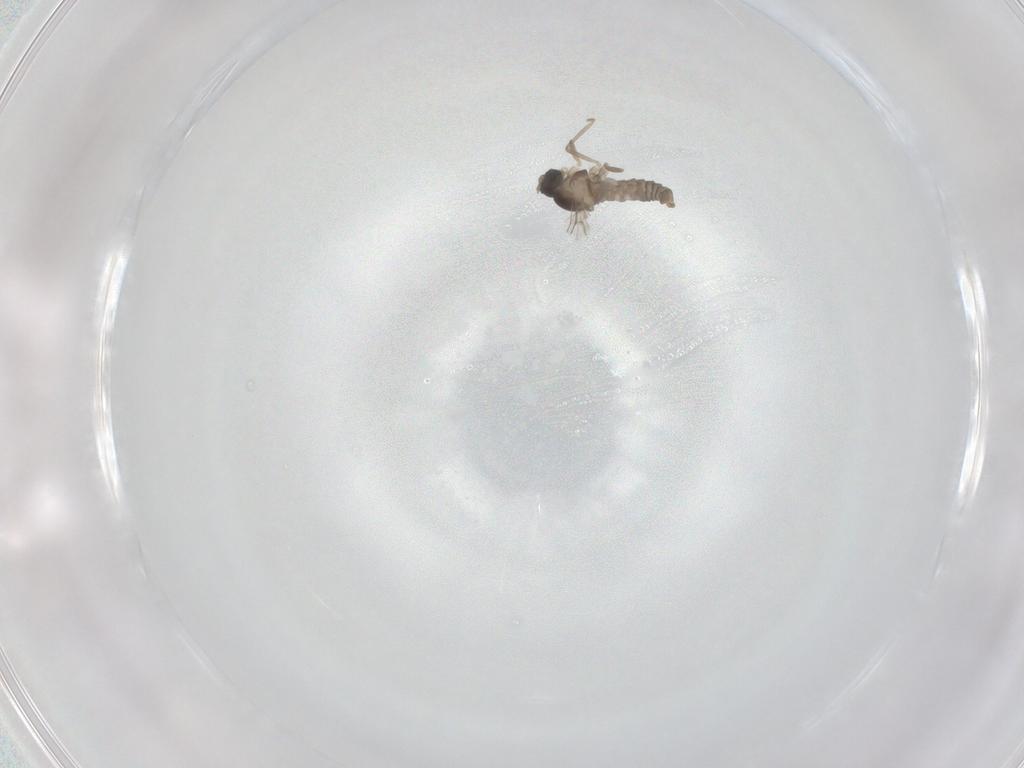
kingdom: Animalia
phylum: Arthropoda
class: Insecta
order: Diptera
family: Cecidomyiidae
